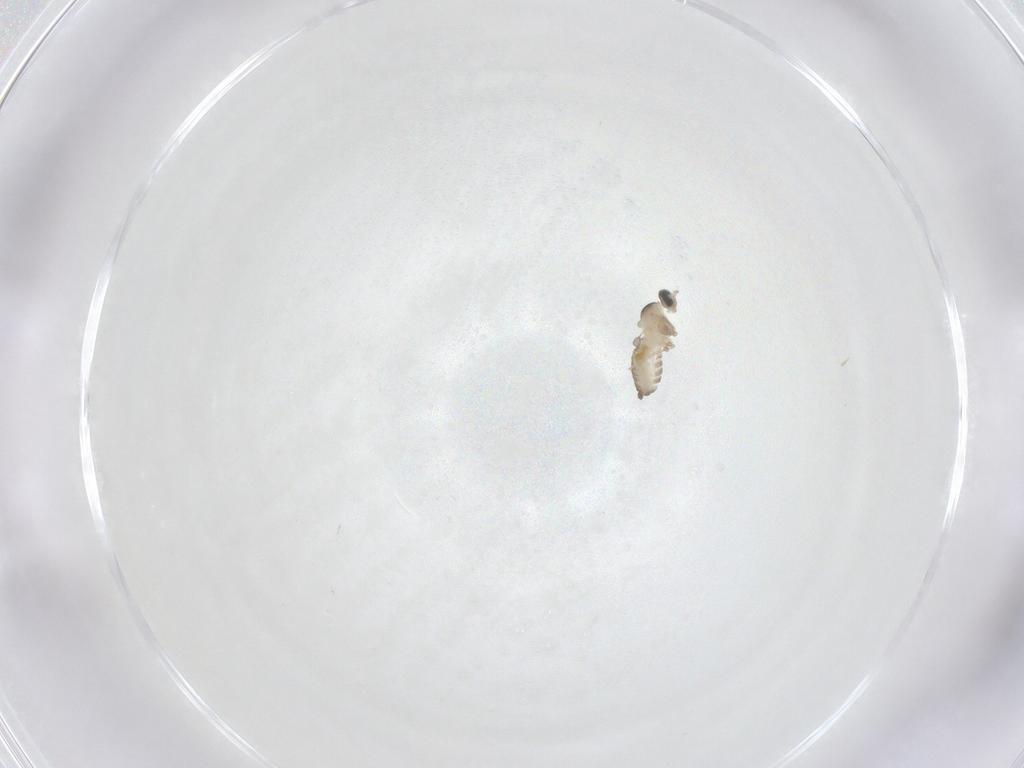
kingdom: Animalia
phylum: Arthropoda
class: Insecta
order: Diptera
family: Cecidomyiidae
